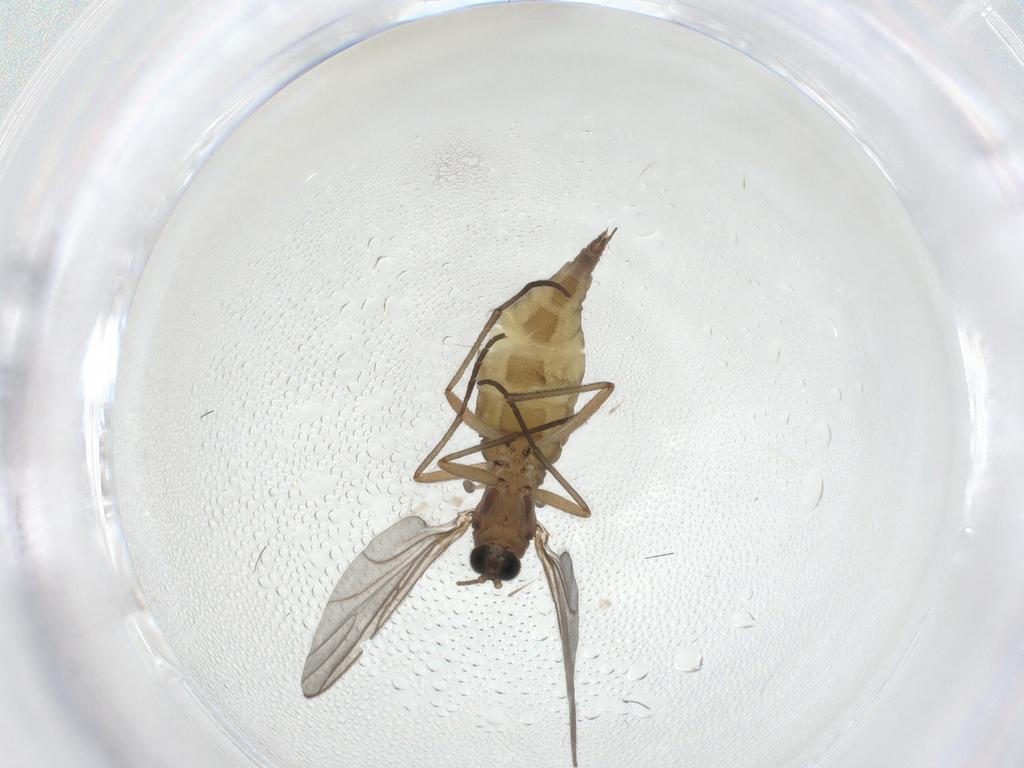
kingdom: Animalia
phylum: Arthropoda
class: Insecta
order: Diptera
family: Sciaridae
